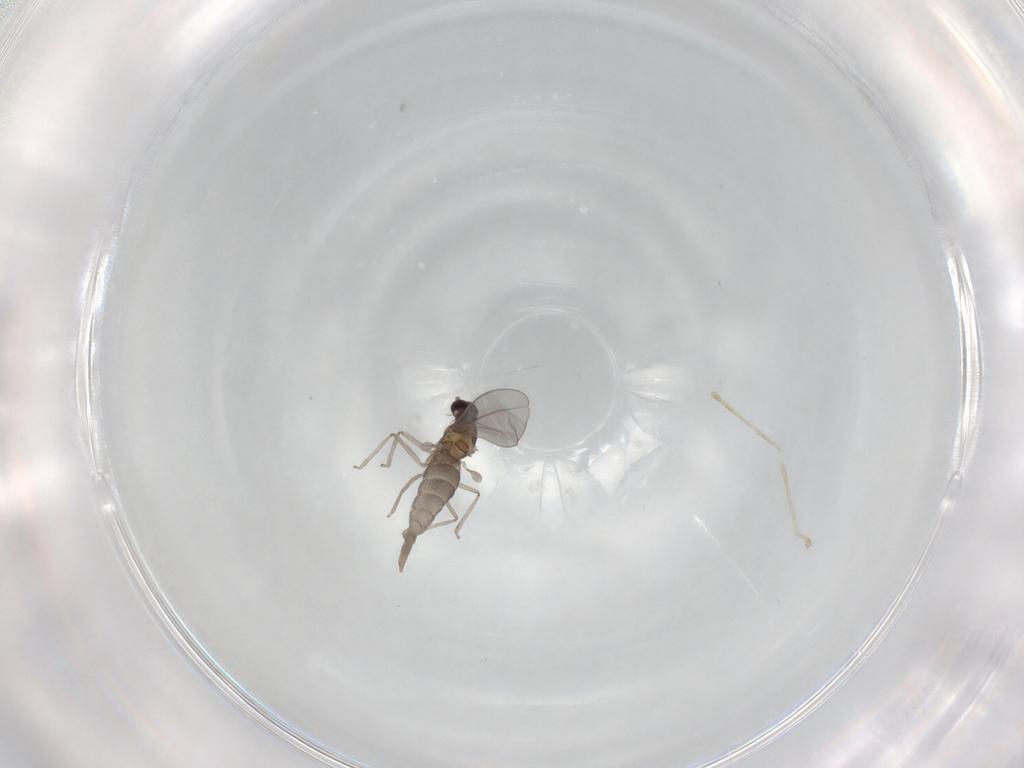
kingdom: Animalia
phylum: Arthropoda
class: Insecta
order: Diptera
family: Cecidomyiidae
